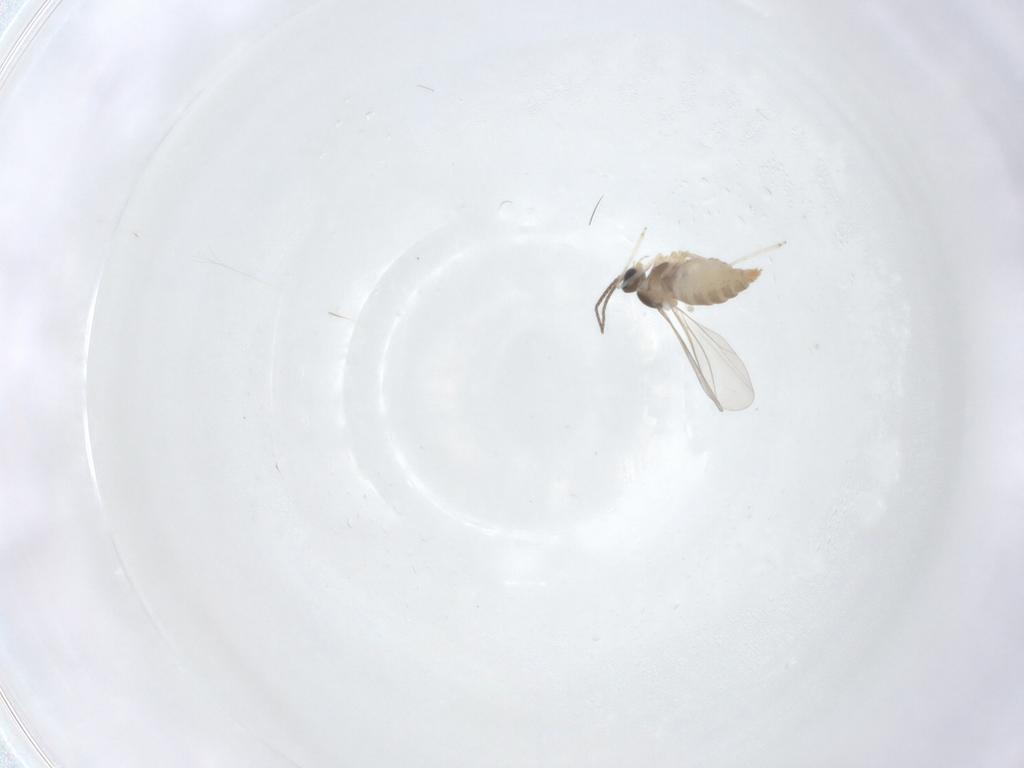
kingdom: Animalia
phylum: Arthropoda
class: Insecta
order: Diptera
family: Cecidomyiidae
